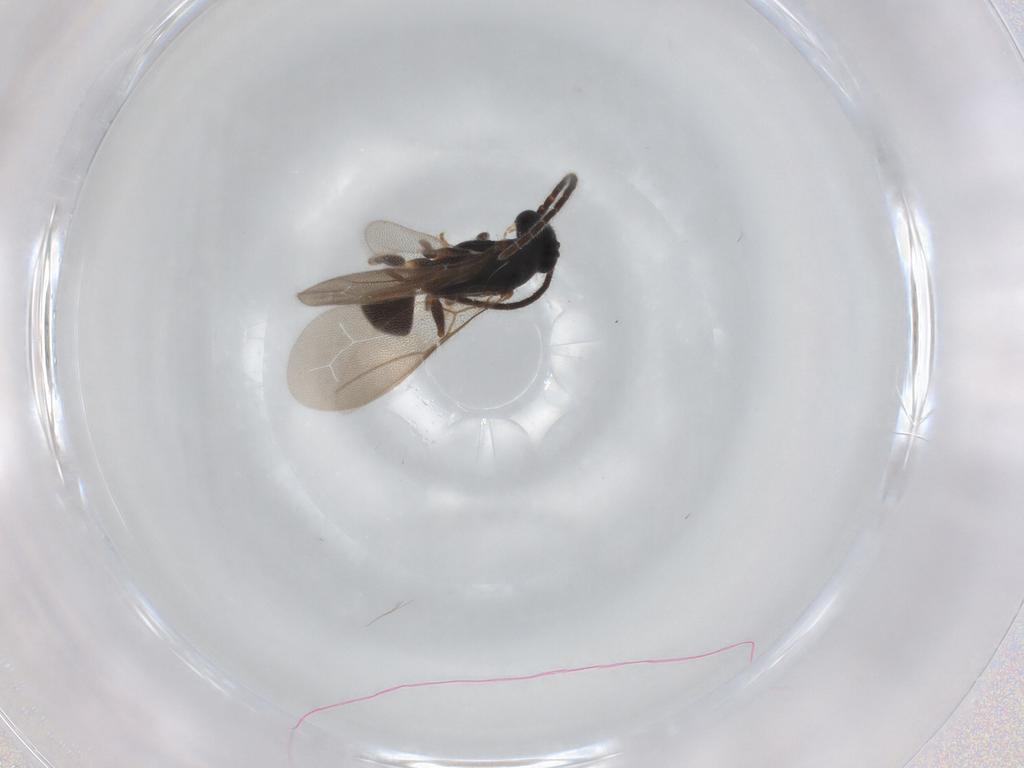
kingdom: Animalia
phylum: Arthropoda
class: Insecta
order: Hymenoptera
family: Bethylidae
